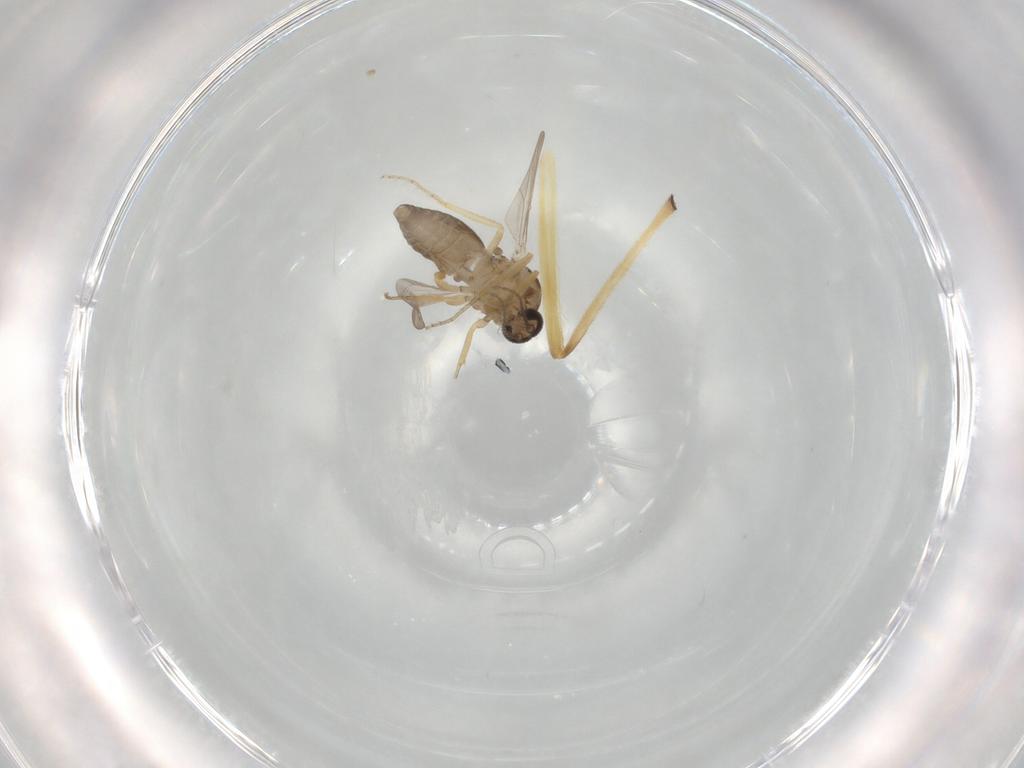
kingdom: Animalia
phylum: Arthropoda
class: Insecta
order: Diptera
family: Ceratopogonidae
